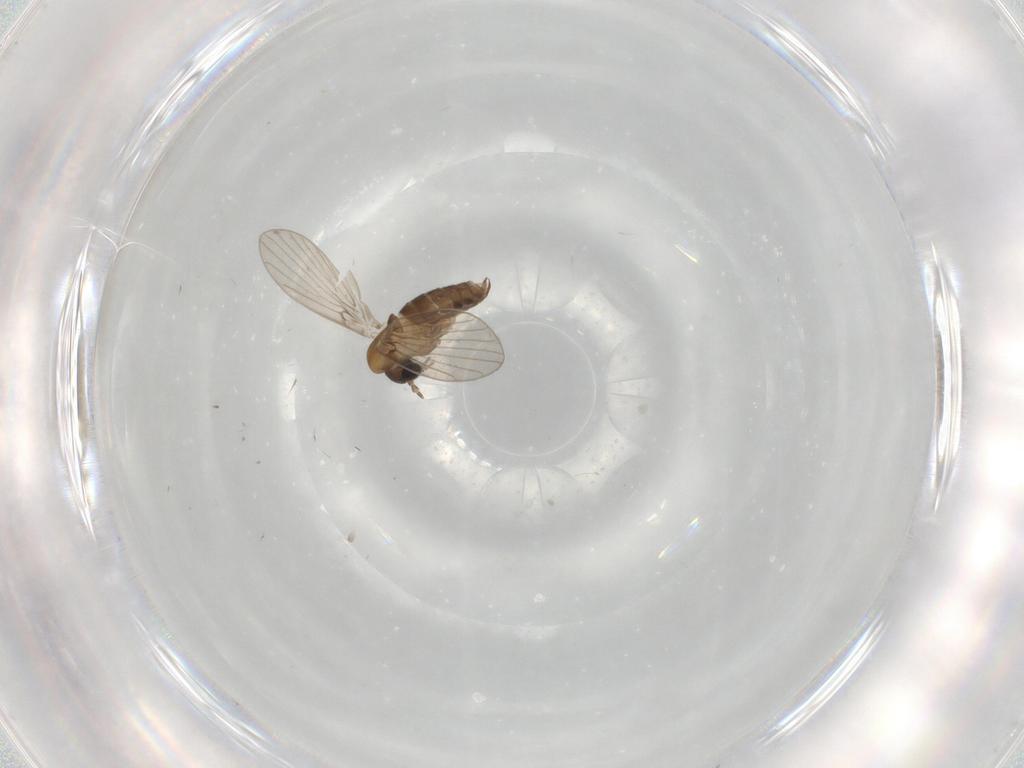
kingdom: Animalia
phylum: Arthropoda
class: Insecta
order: Diptera
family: Psychodidae
